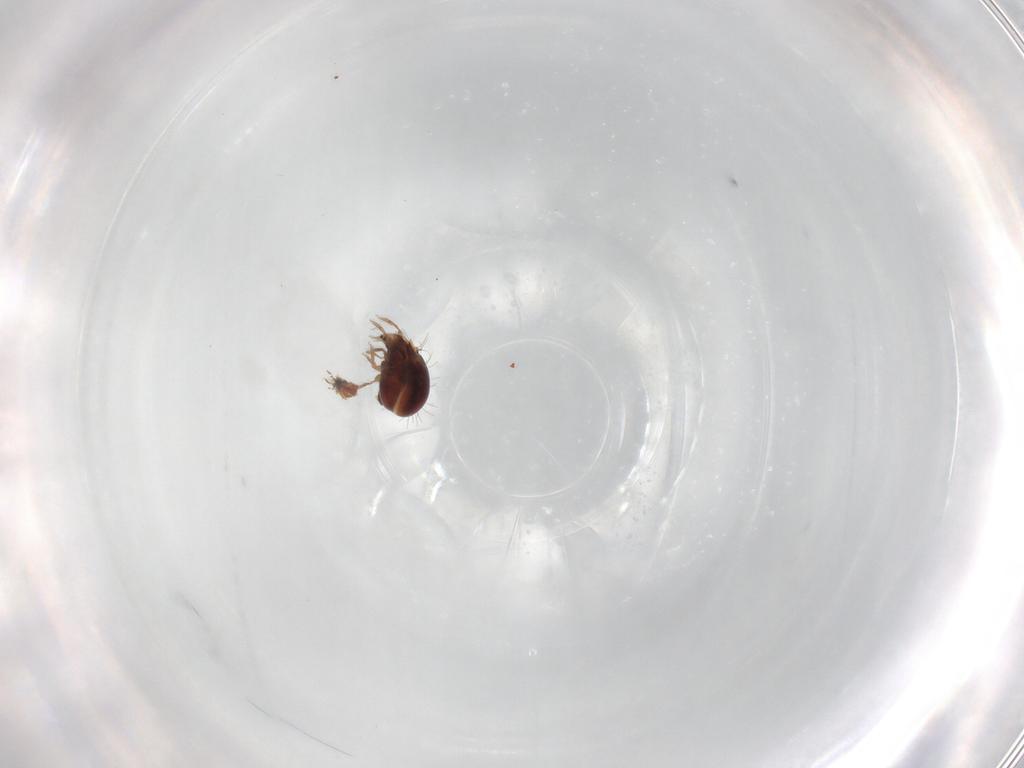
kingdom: Animalia
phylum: Arthropoda
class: Arachnida
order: Sarcoptiformes
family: Humerobatidae
